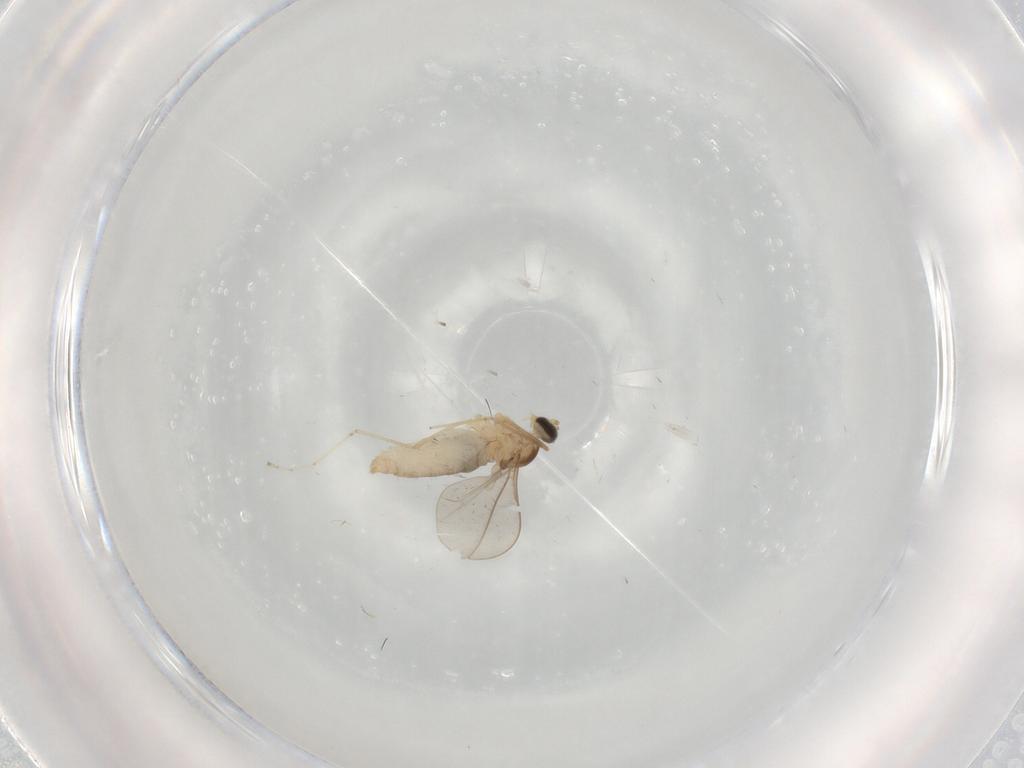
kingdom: Animalia
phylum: Arthropoda
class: Insecta
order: Diptera
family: Cecidomyiidae
